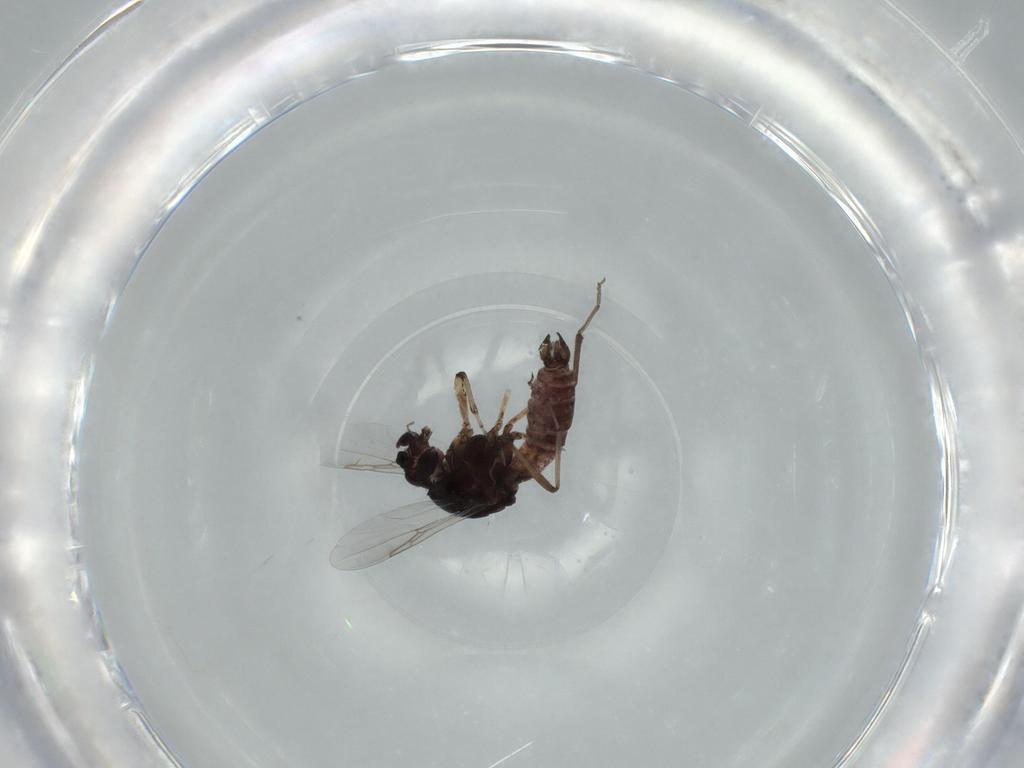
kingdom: Animalia
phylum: Arthropoda
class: Insecta
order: Diptera
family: Ceratopogonidae
